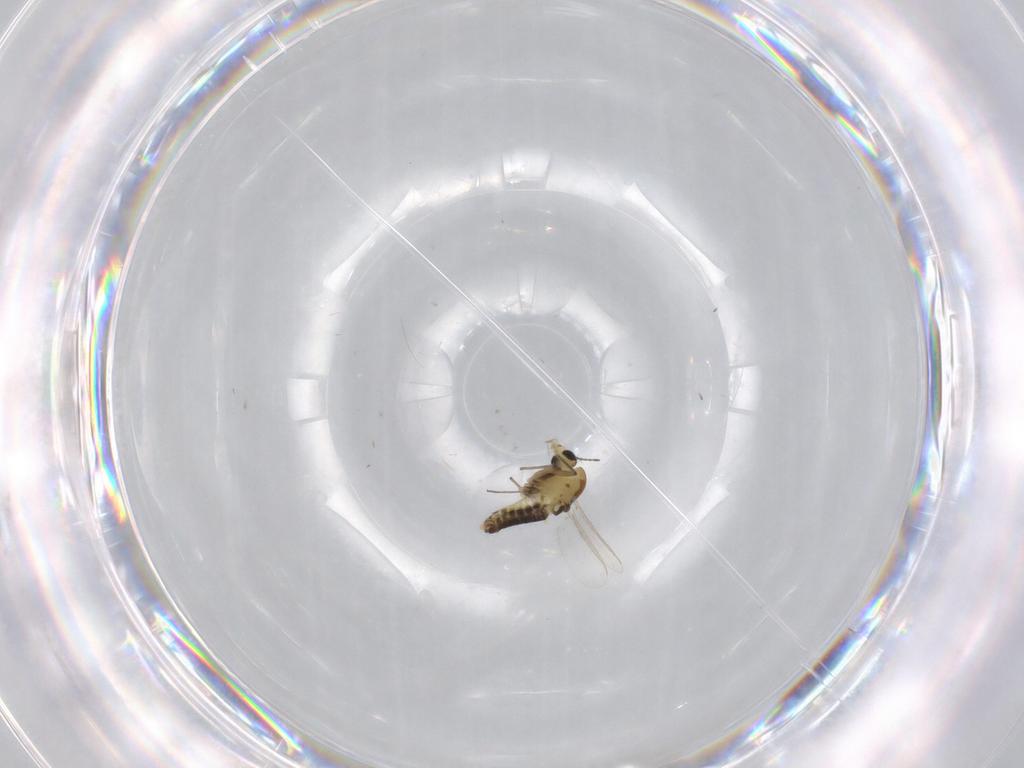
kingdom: Animalia
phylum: Arthropoda
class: Insecta
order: Diptera
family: Chironomidae
